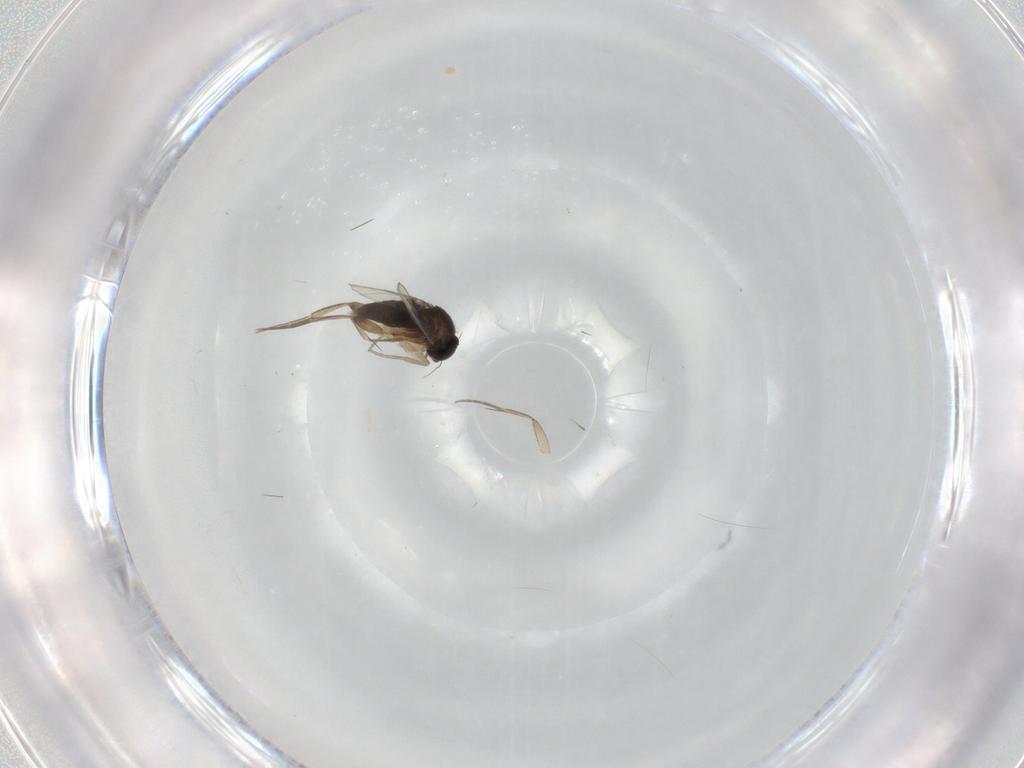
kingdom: Animalia
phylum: Arthropoda
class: Insecta
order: Diptera
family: Phoridae
